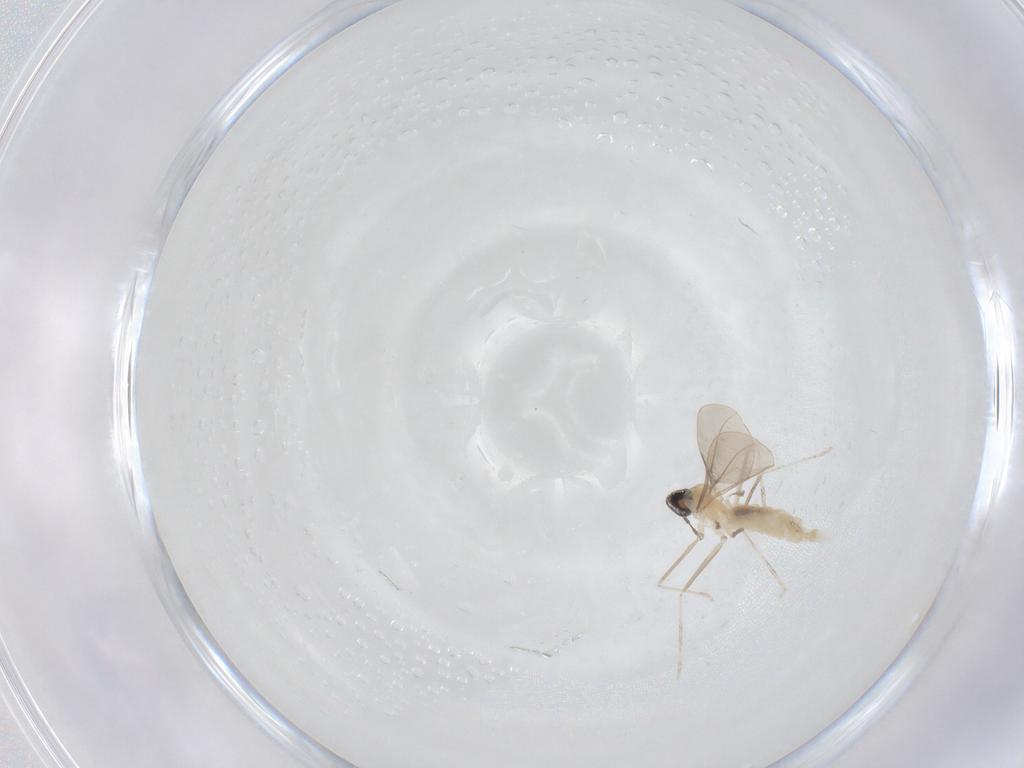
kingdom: Animalia
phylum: Arthropoda
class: Insecta
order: Diptera
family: Cecidomyiidae
